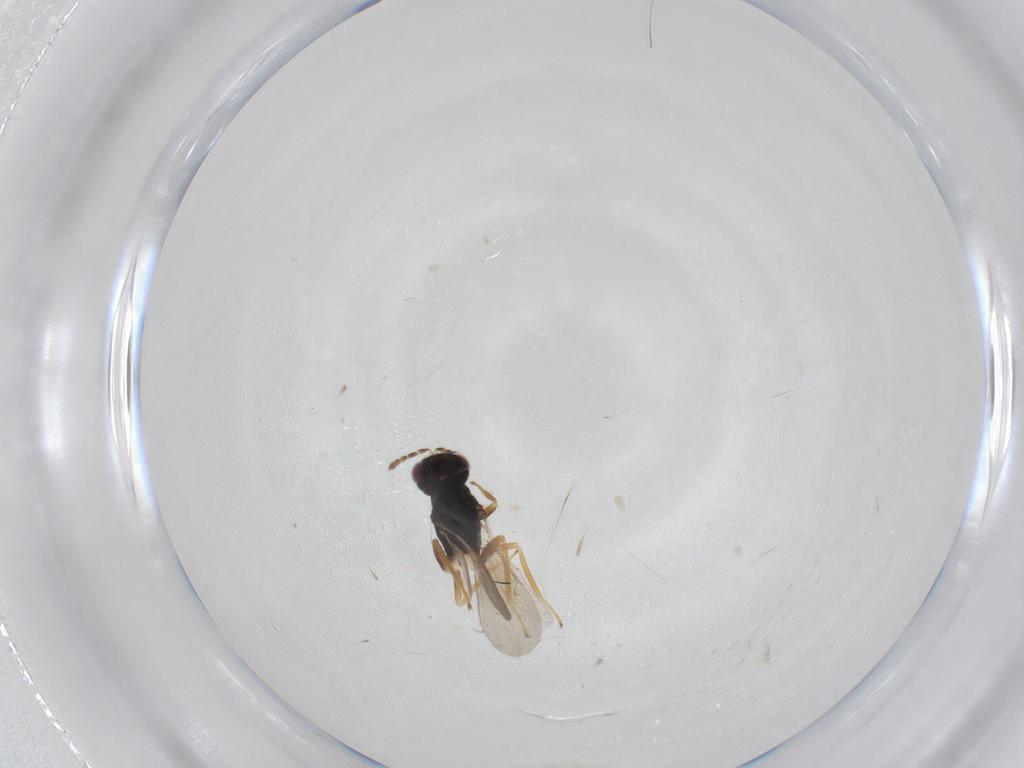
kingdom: Animalia
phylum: Arthropoda
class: Insecta
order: Hymenoptera
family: Eulophidae
